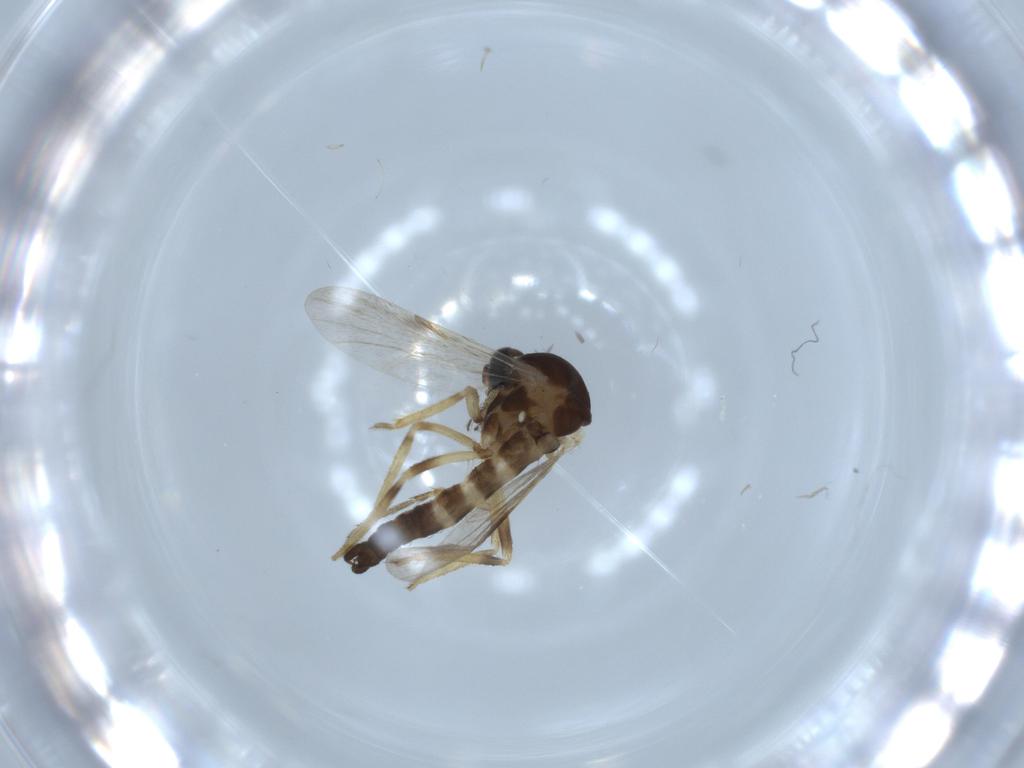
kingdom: Animalia
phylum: Arthropoda
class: Insecta
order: Diptera
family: Ceratopogonidae
